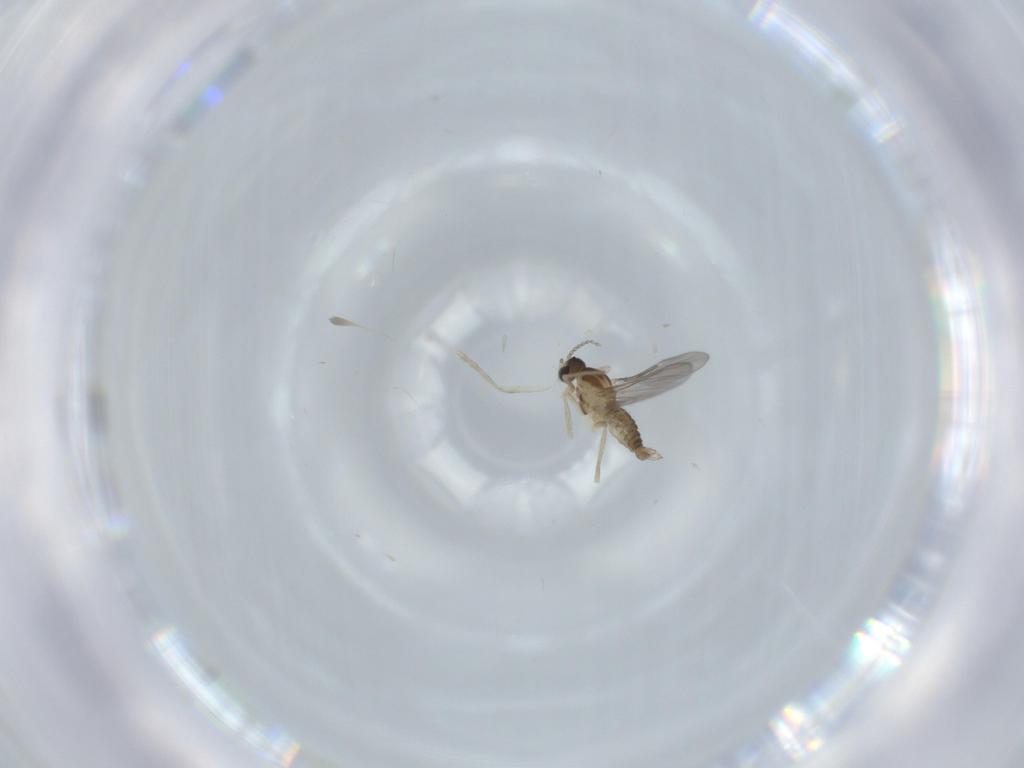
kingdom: Animalia
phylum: Arthropoda
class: Insecta
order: Diptera
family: Cecidomyiidae
